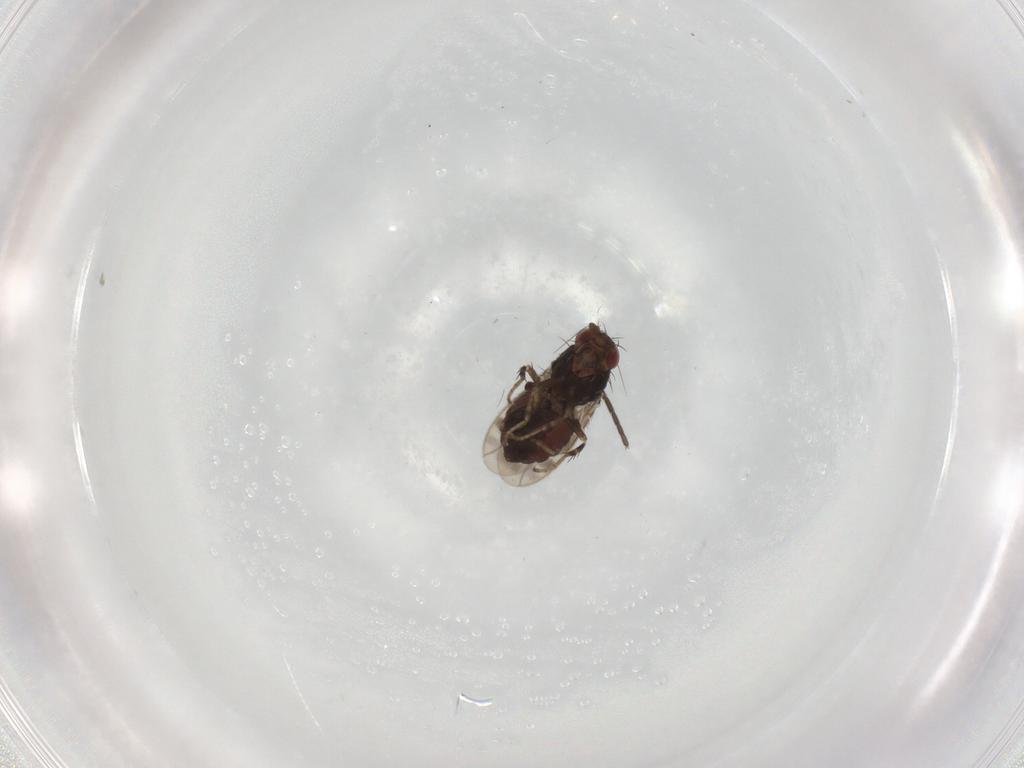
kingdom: Animalia
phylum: Arthropoda
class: Insecta
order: Diptera
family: Sphaeroceridae
